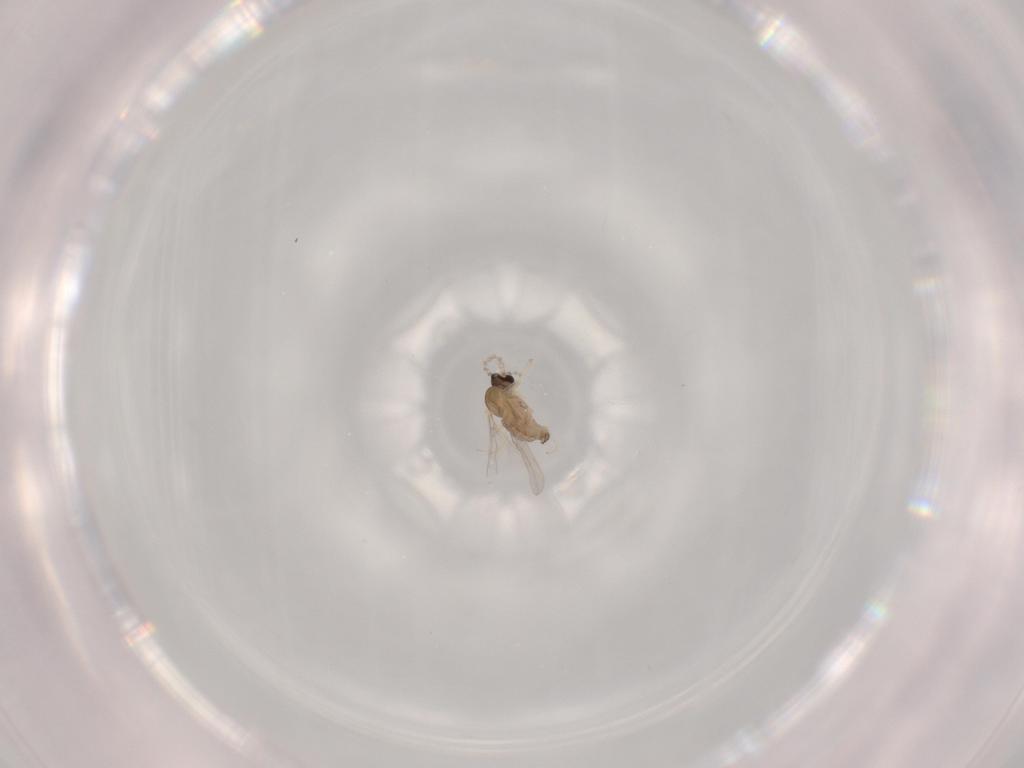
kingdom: Animalia
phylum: Arthropoda
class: Insecta
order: Diptera
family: Cecidomyiidae
